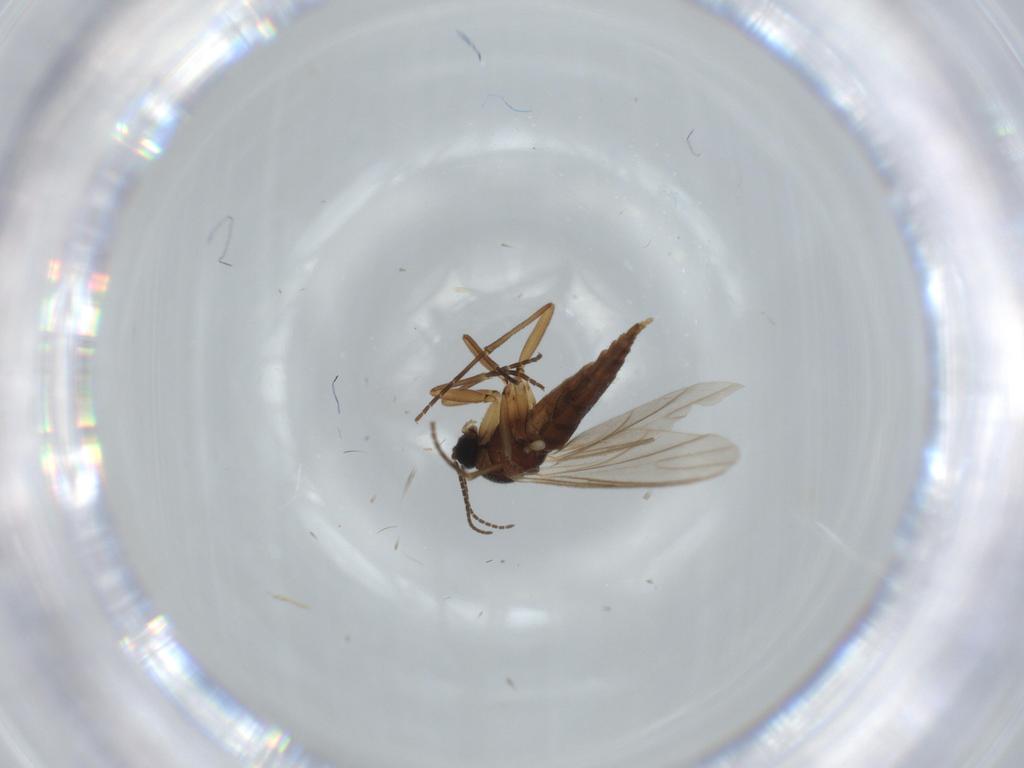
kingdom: Animalia
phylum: Arthropoda
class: Insecta
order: Diptera
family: Sciaridae
